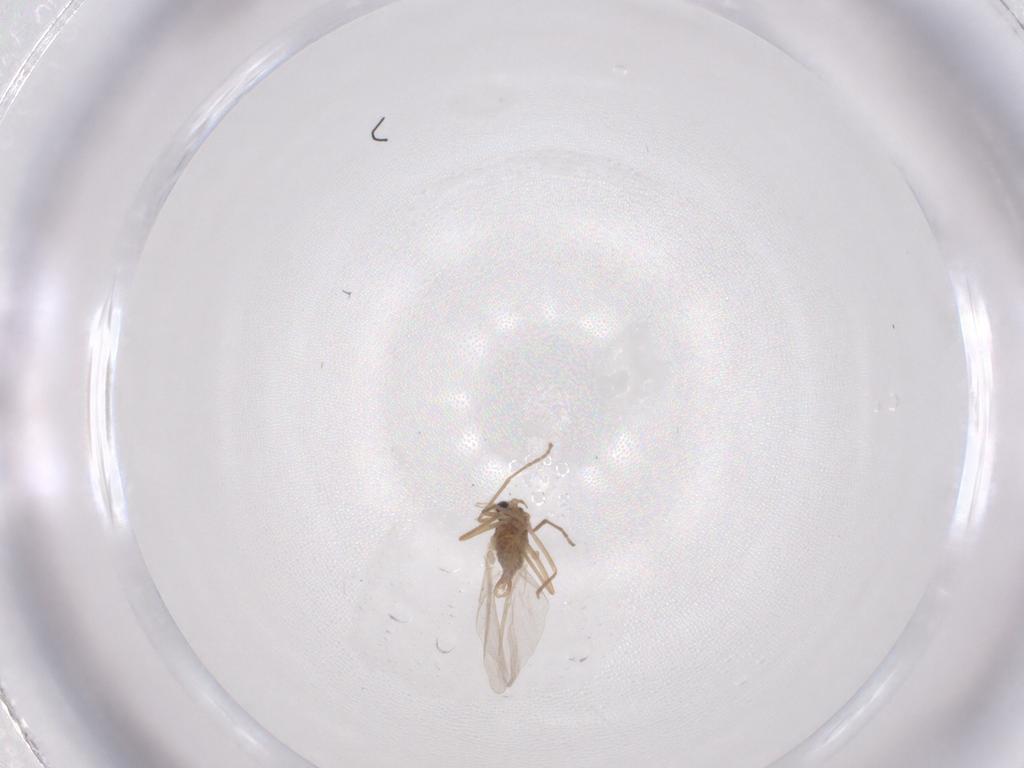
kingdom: Animalia
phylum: Arthropoda
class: Insecta
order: Diptera
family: Cecidomyiidae
